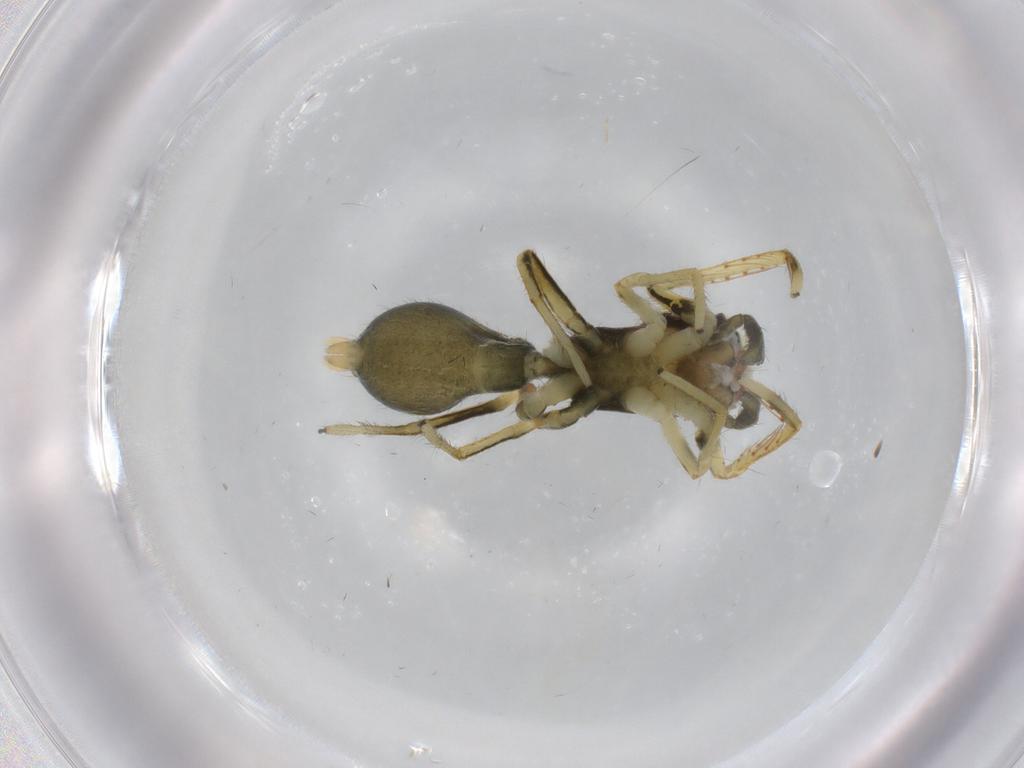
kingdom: Animalia
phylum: Arthropoda
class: Arachnida
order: Araneae
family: Salticidae
